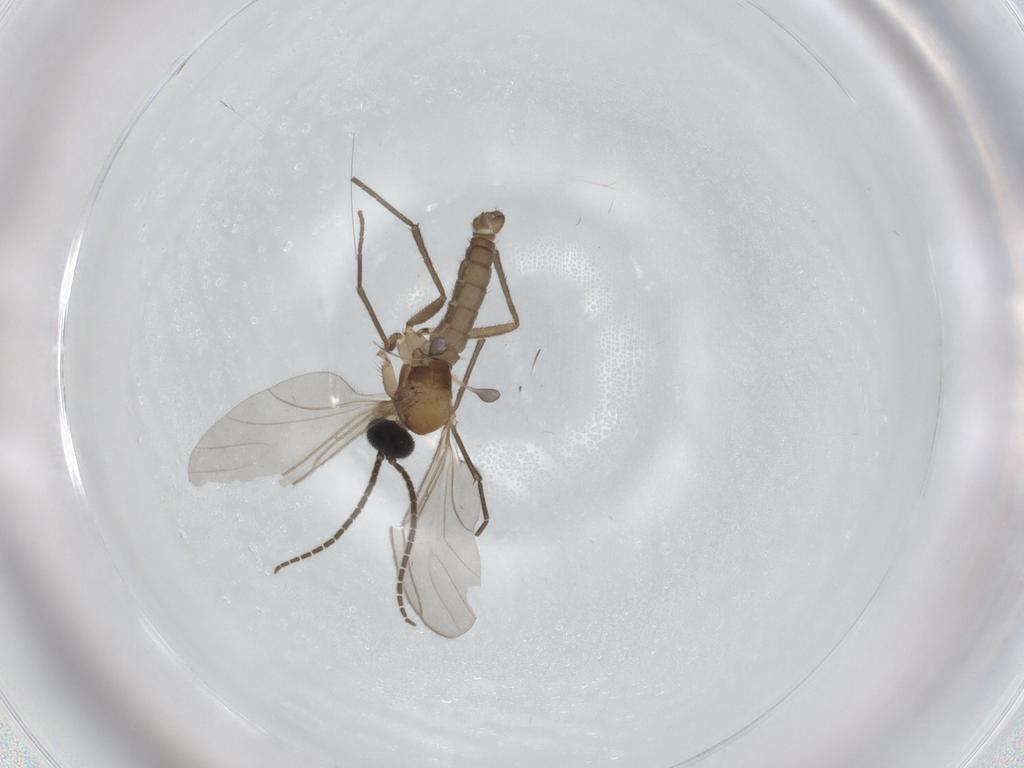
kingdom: Animalia
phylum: Arthropoda
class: Insecta
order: Diptera
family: Sciaridae
